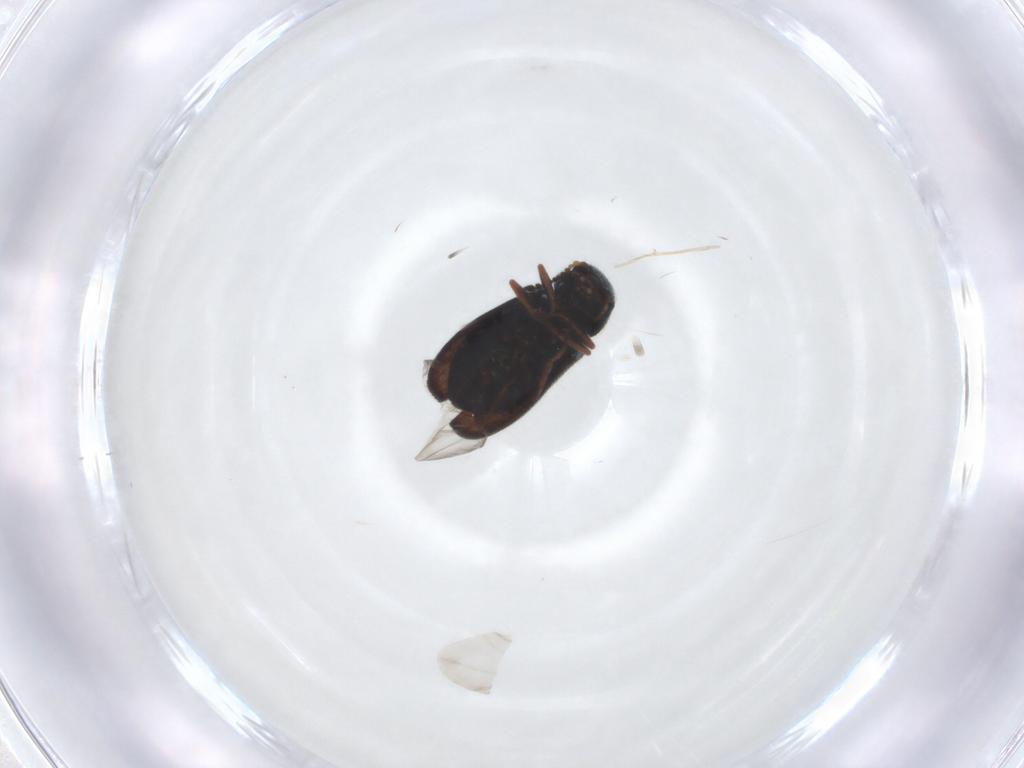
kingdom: Animalia
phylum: Arthropoda
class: Insecta
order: Coleoptera
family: Melyridae
